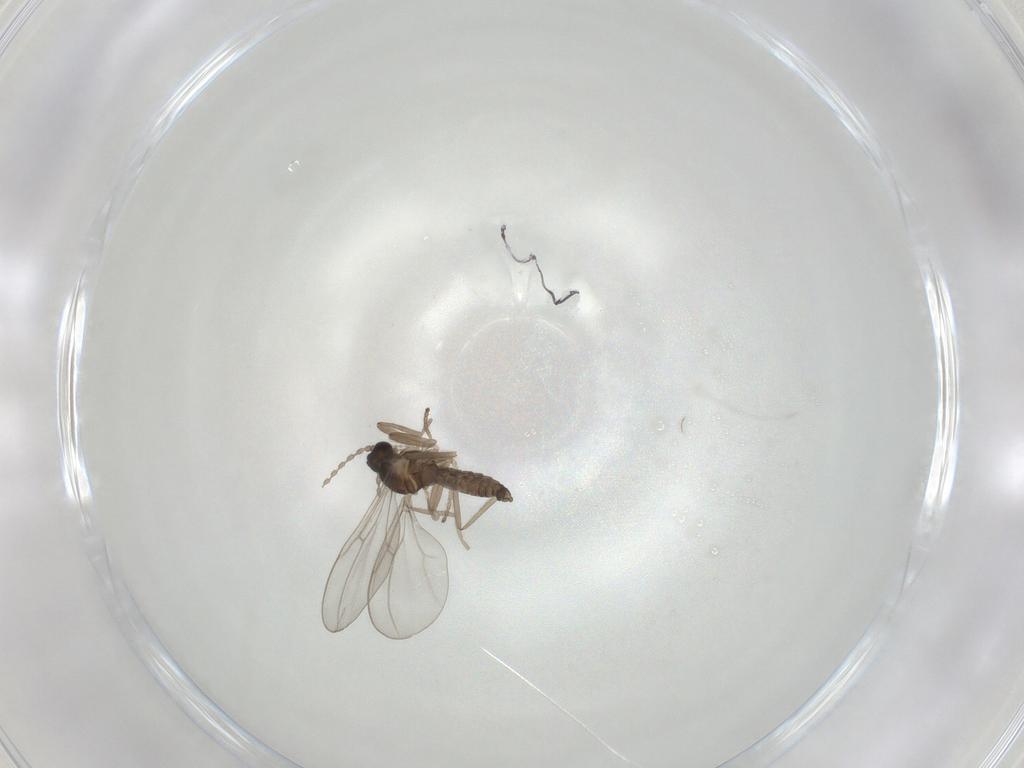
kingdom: Animalia
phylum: Arthropoda
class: Insecta
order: Diptera
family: Cecidomyiidae
